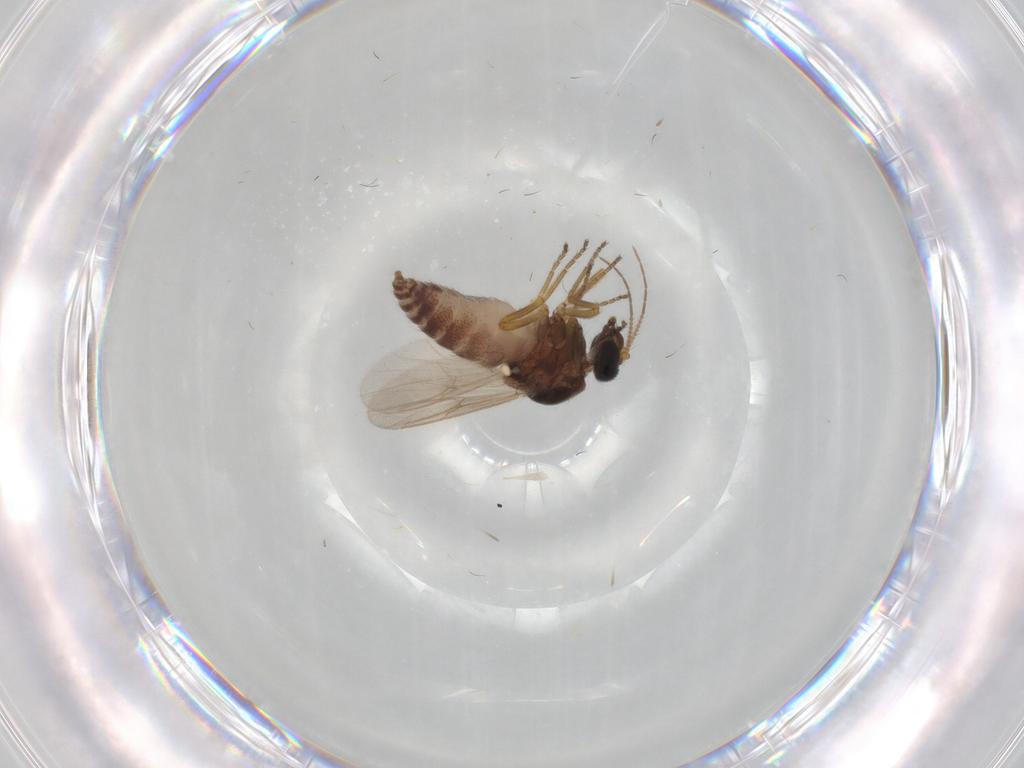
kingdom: Animalia
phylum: Arthropoda
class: Insecta
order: Diptera
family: Ceratopogonidae
